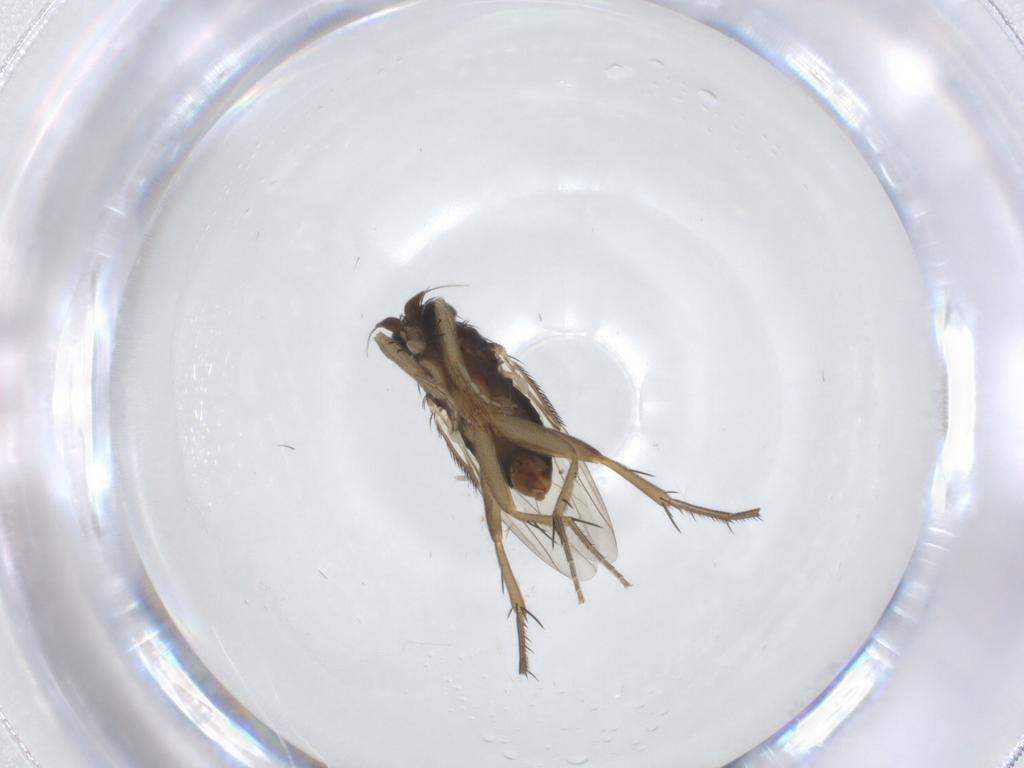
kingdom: Animalia
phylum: Arthropoda
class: Insecta
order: Diptera
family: Phoridae
